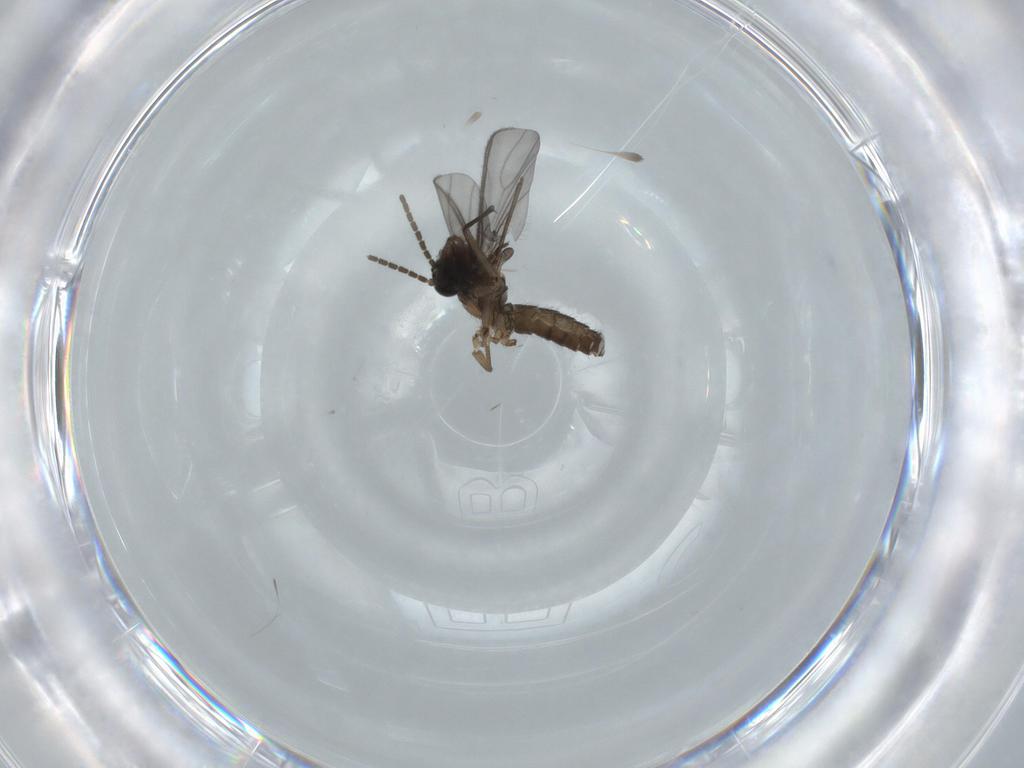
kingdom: Animalia
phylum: Arthropoda
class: Insecta
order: Diptera
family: Sciaridae
